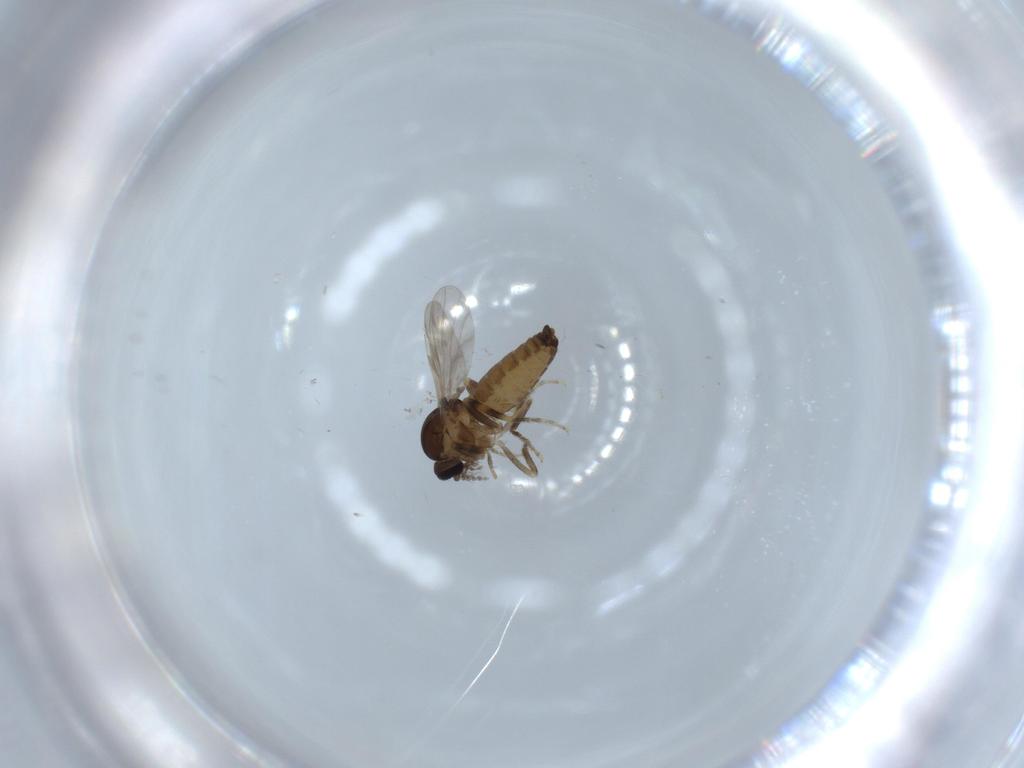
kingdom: Animalia
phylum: Arthropoda
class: Insecta
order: Diptera
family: Ceratopogonidae
